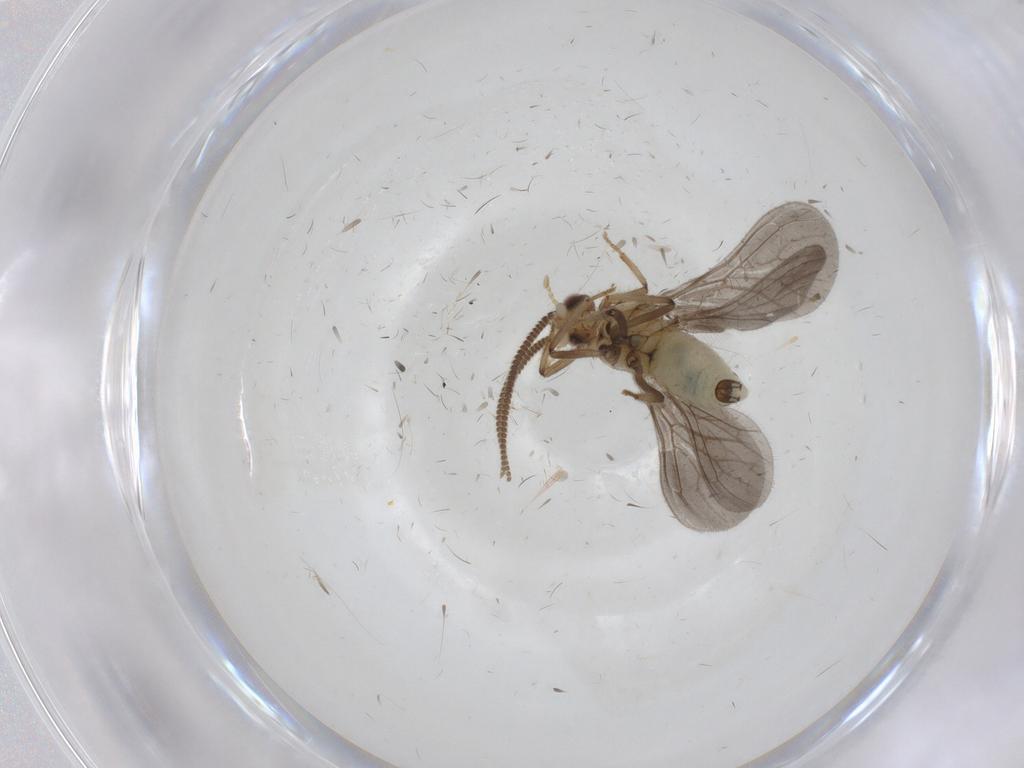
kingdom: Animalia
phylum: Arthropoda
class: Insecta
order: Neuroptera
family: Coniopterygidae
